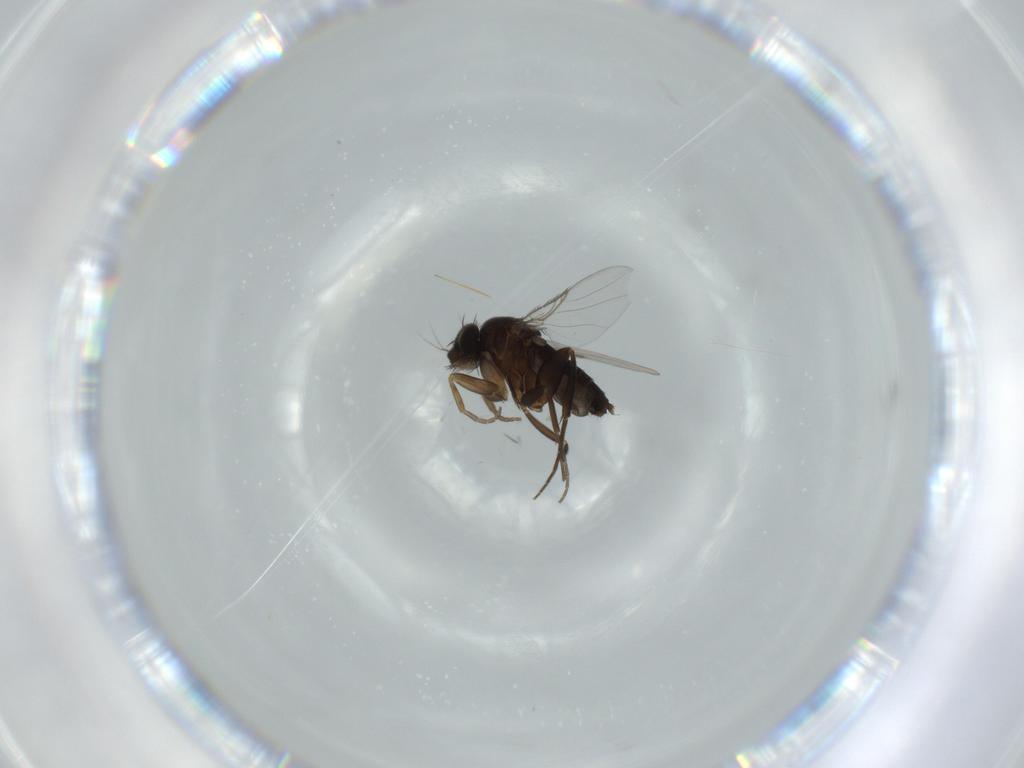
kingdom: Animalia
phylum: Arthropoda
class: Insecta
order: Diptera
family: Phoridae
